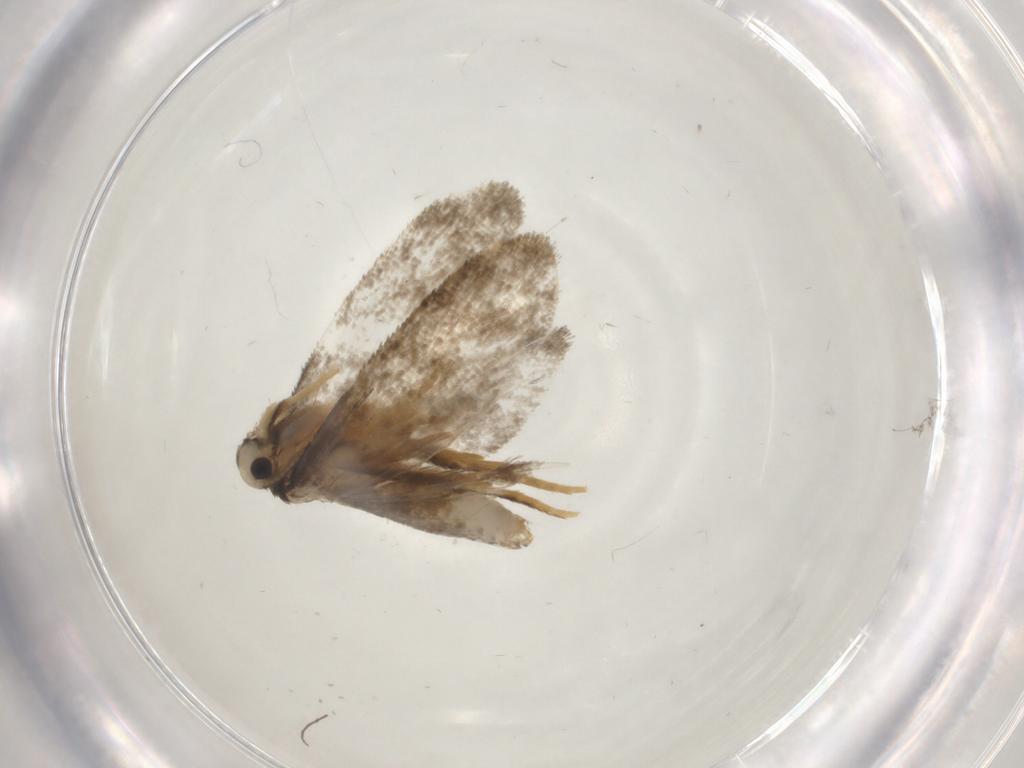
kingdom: Animalia
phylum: Arthropoda
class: Insecta
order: Lepidoptera
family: Psychidae
